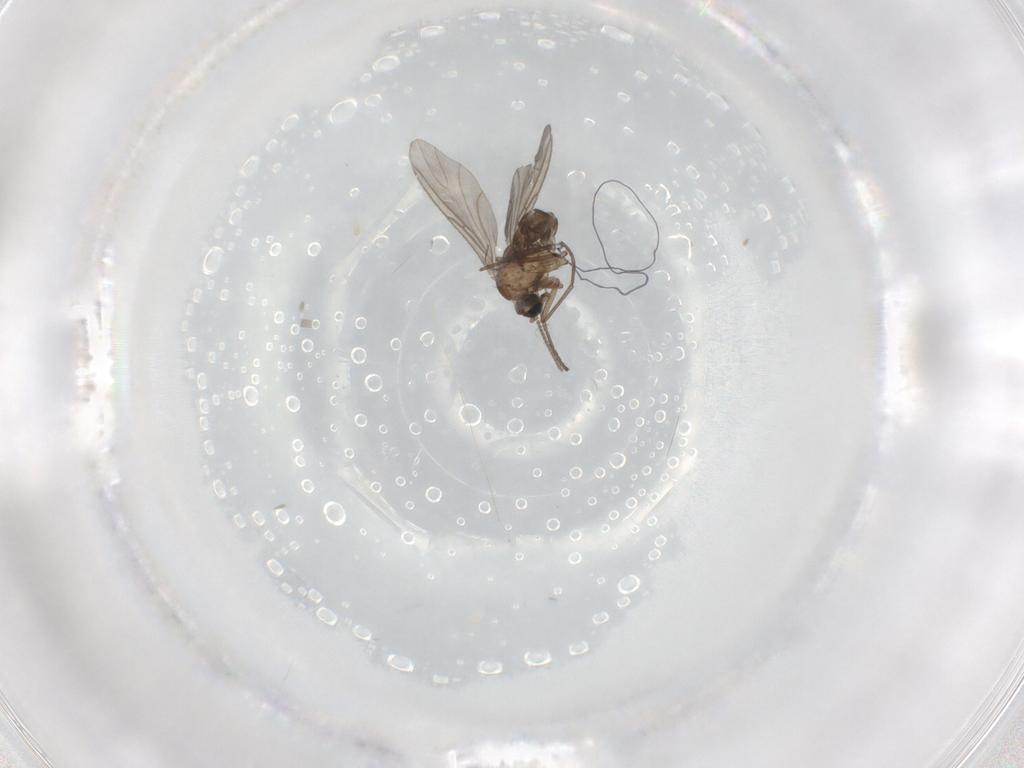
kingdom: Animalia
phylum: Arthropoda
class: Insecta
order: Diptera
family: Sciaridae
